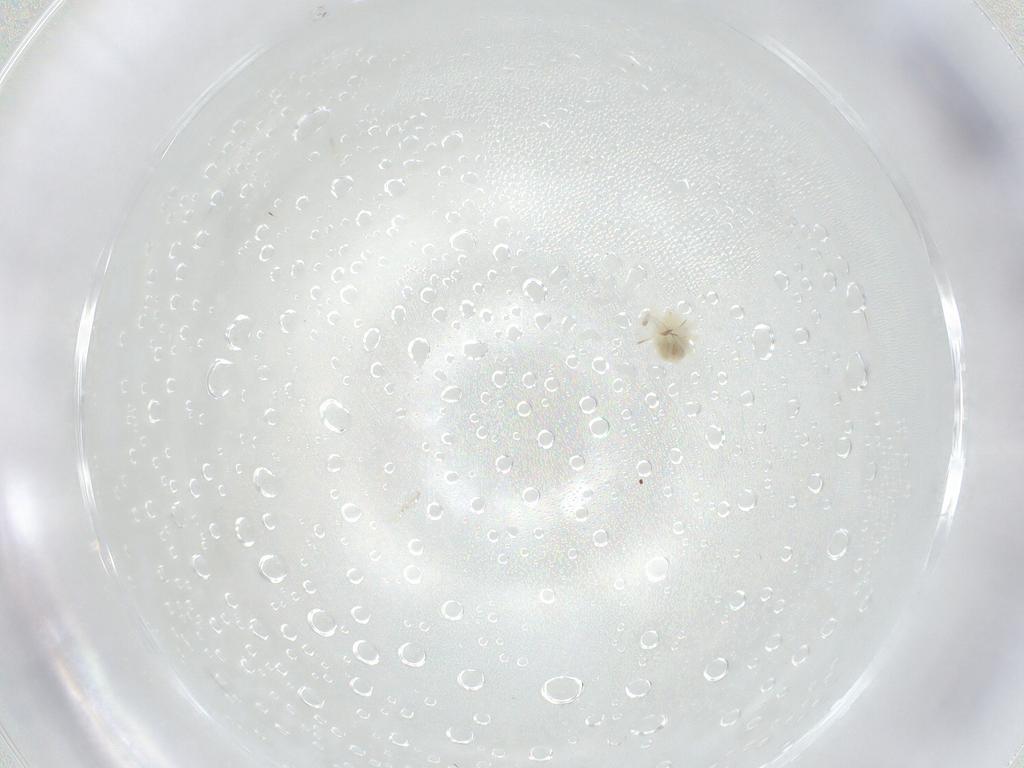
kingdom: Animalia
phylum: Arthropoda
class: Arachnida
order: Trombidiformes
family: Anystidae
